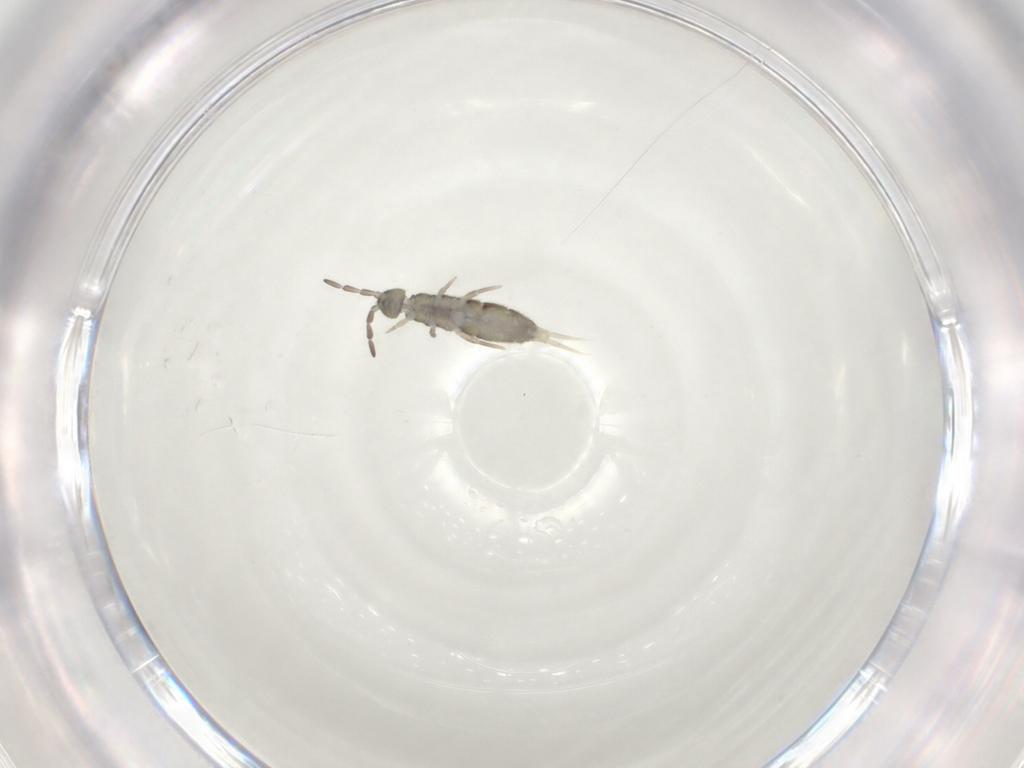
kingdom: Animalia
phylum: Arthropoda
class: Collembola
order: Entomobryomorpha
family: Isotomidae
